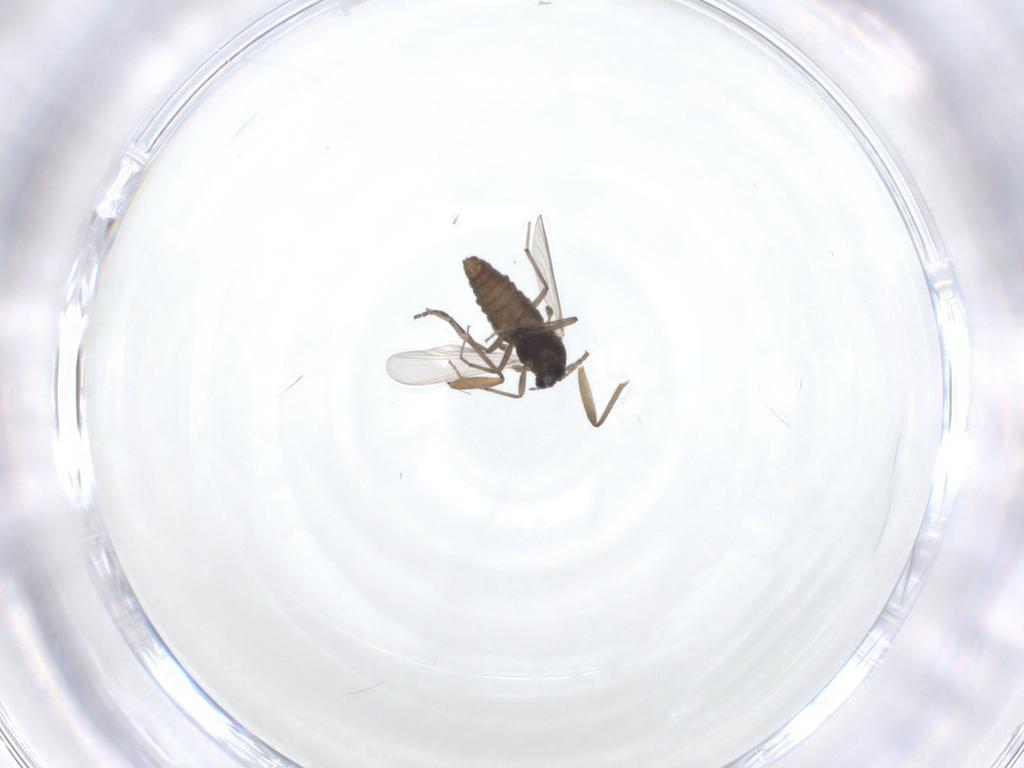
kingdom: Animalia
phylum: Arthropoda
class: Insecta
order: Diptera
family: Chironomidae
